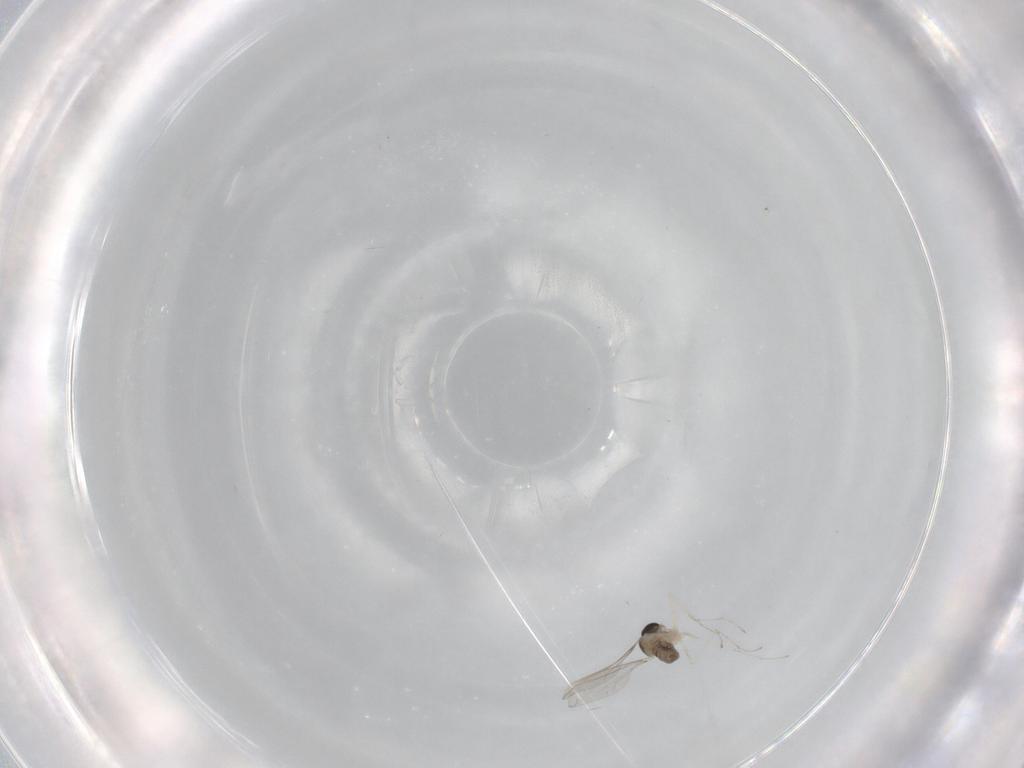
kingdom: Animalia
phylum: Arthropoda
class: Insecta
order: Diptera
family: Cecidomyiidae
